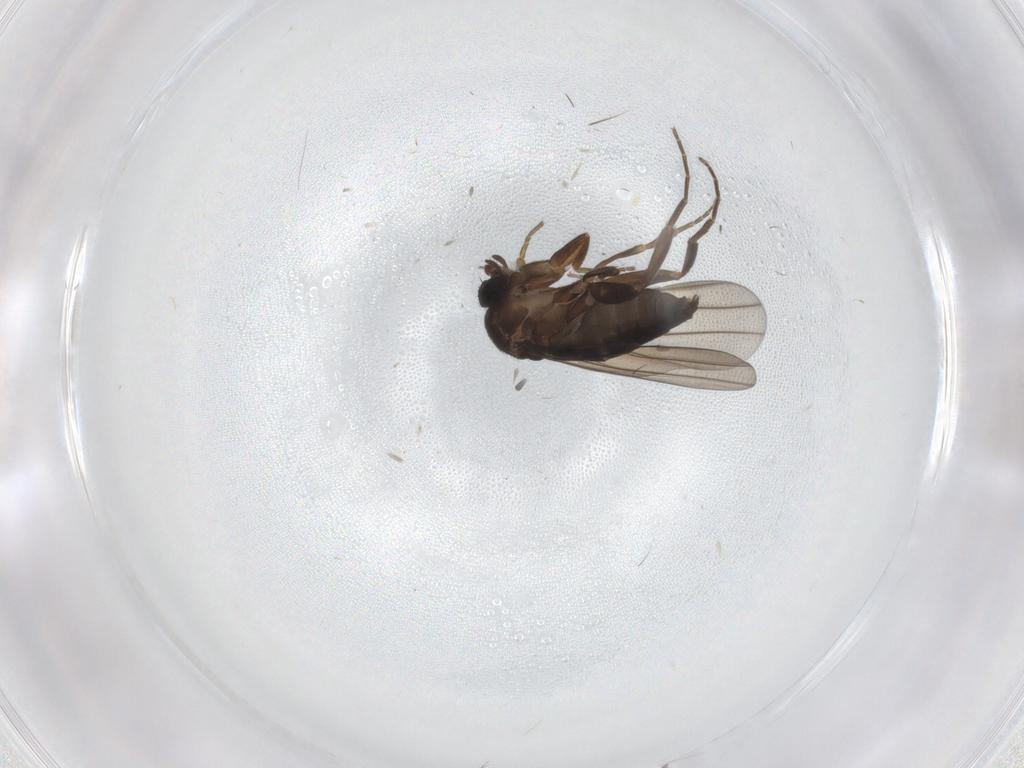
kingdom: Animalia
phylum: Arthropoda
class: Insecta
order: Diptera
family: Phoridae
